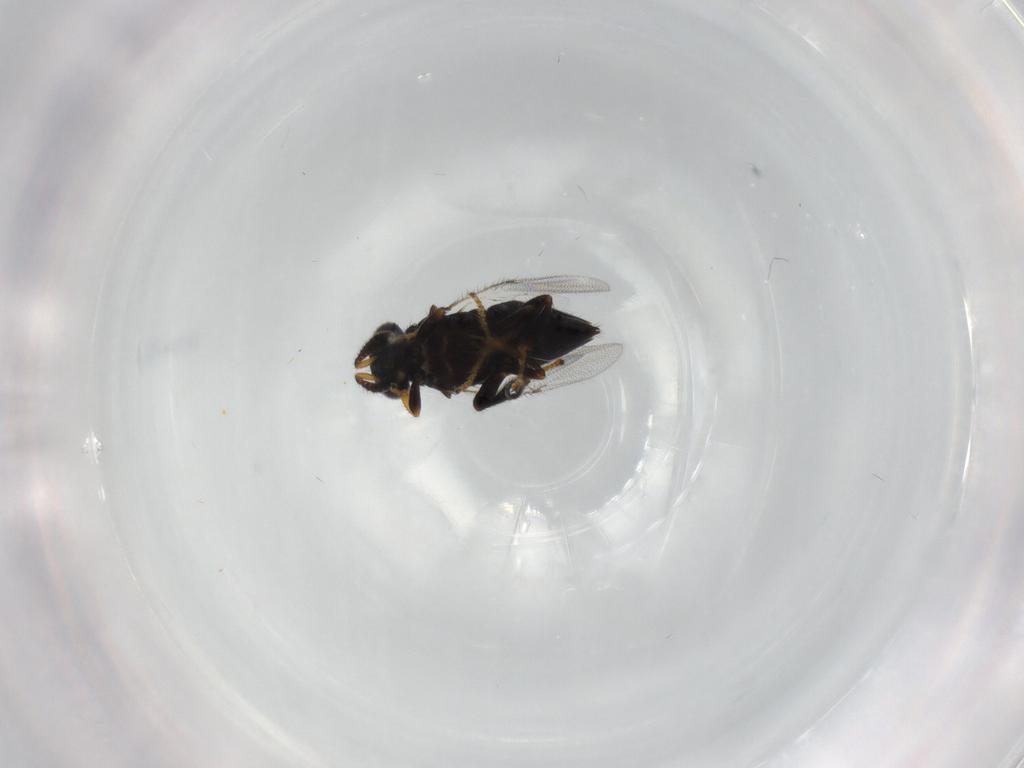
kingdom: Animalia
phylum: Arthropoda
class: Insecta
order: Hymenoptera
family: Encyrtidae
